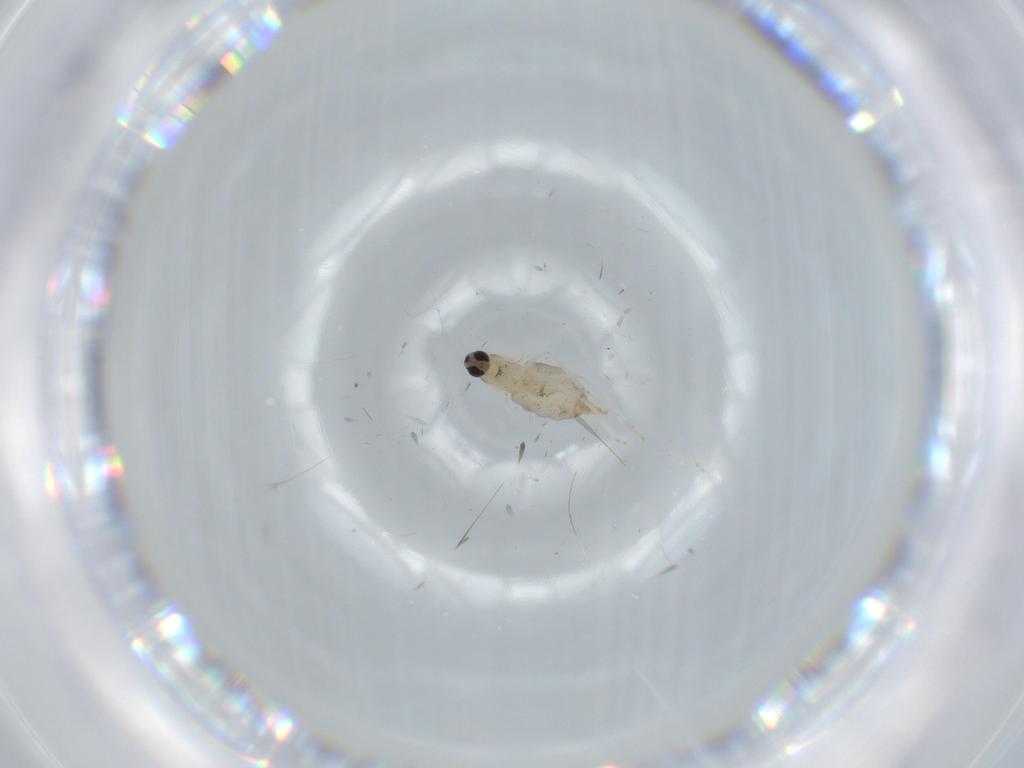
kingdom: Animalia
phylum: Arthropoda
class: Insecta
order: Diptera
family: Cecidomyiidae
